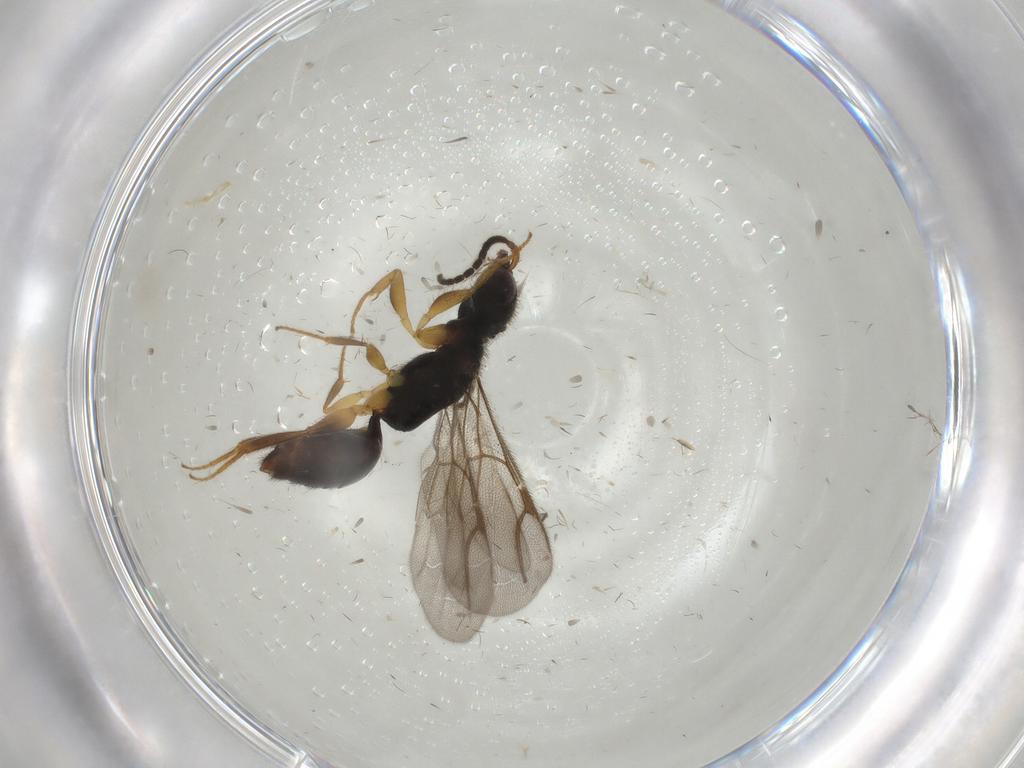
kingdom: Animalia
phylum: Arthropoda
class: Insecta
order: Hymenoptera
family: Bethylidae
